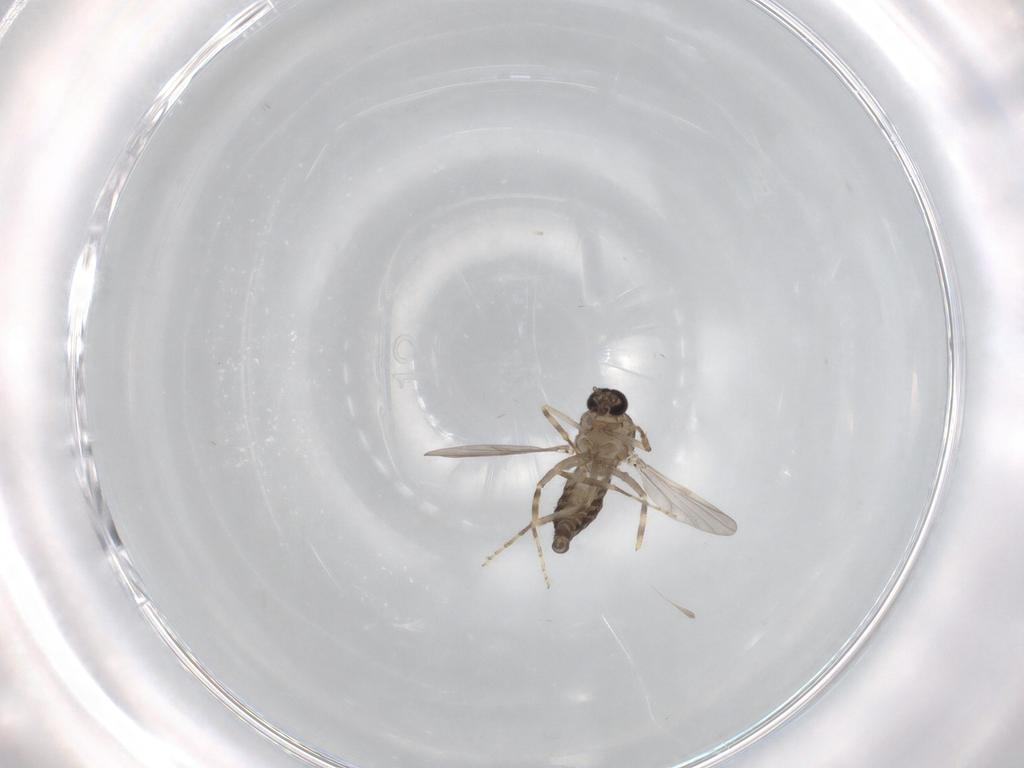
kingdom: Animalia
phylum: Arthropoda
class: Insecta
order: Diptera
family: Ceratopogonidae
